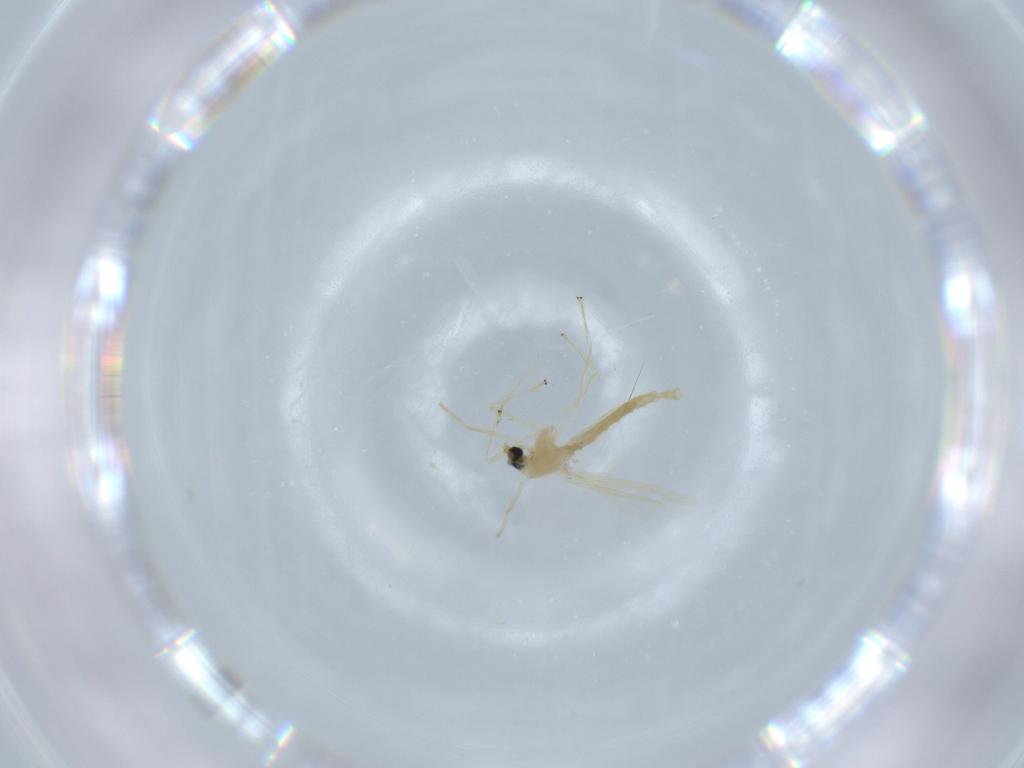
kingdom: Animalia
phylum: Arthropoda
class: Insecta
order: Diptera
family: Chironomidae
